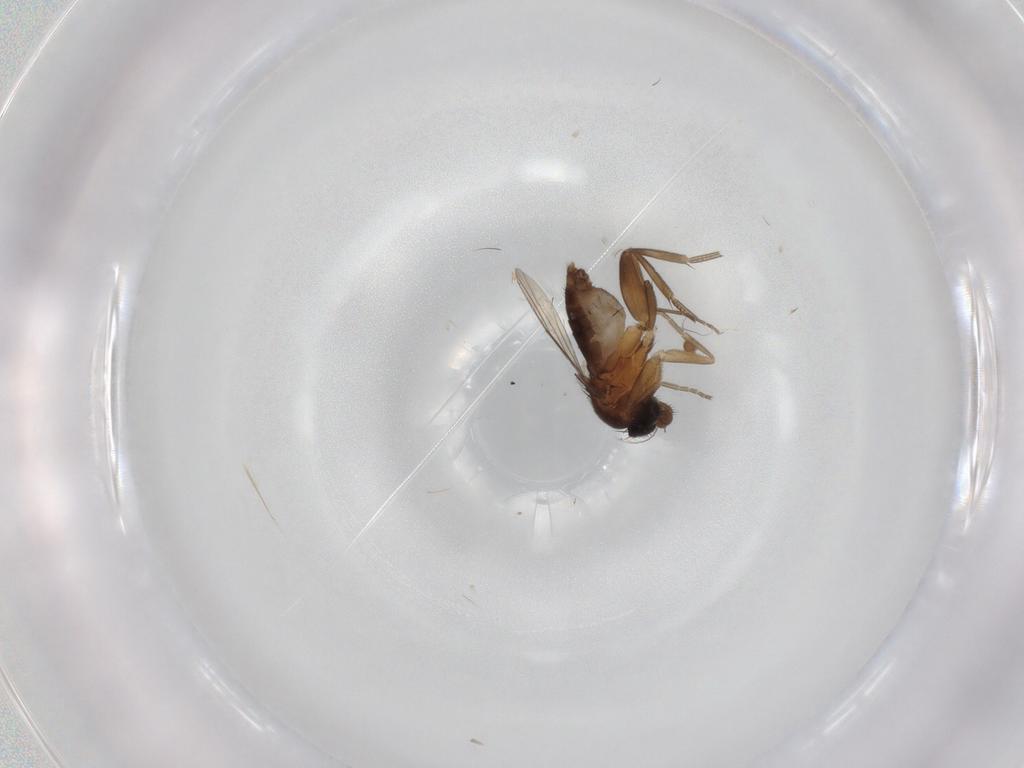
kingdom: Animalia
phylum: Arthropoda
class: Insecta
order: Diptera
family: Phoridae
